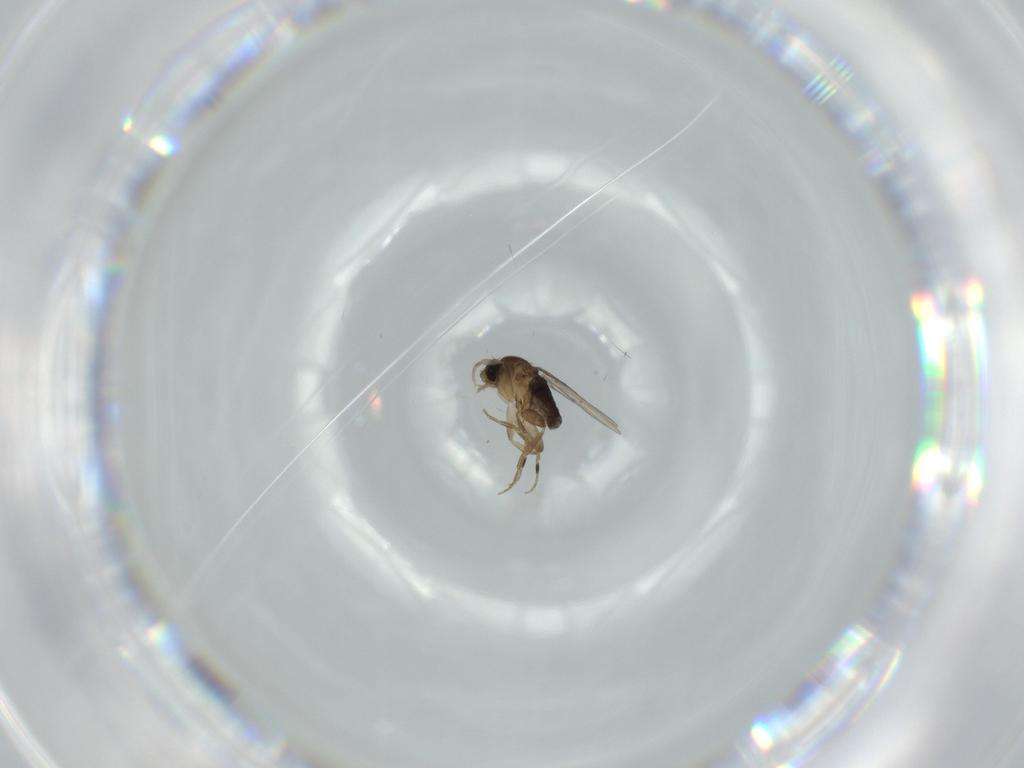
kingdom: Animalia
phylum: Arthropoda
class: Insecta
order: Diptera
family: Phoridae
